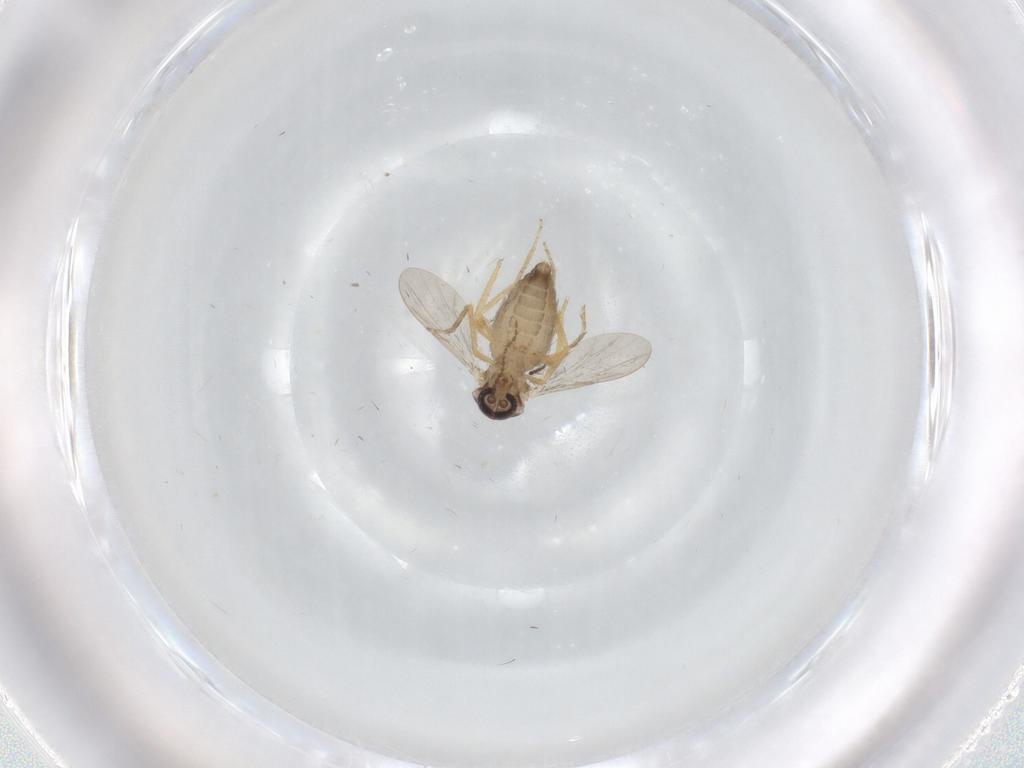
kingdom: Animalia
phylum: Arthropoda
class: Insecta
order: Diptera
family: Ceratopogonidae
